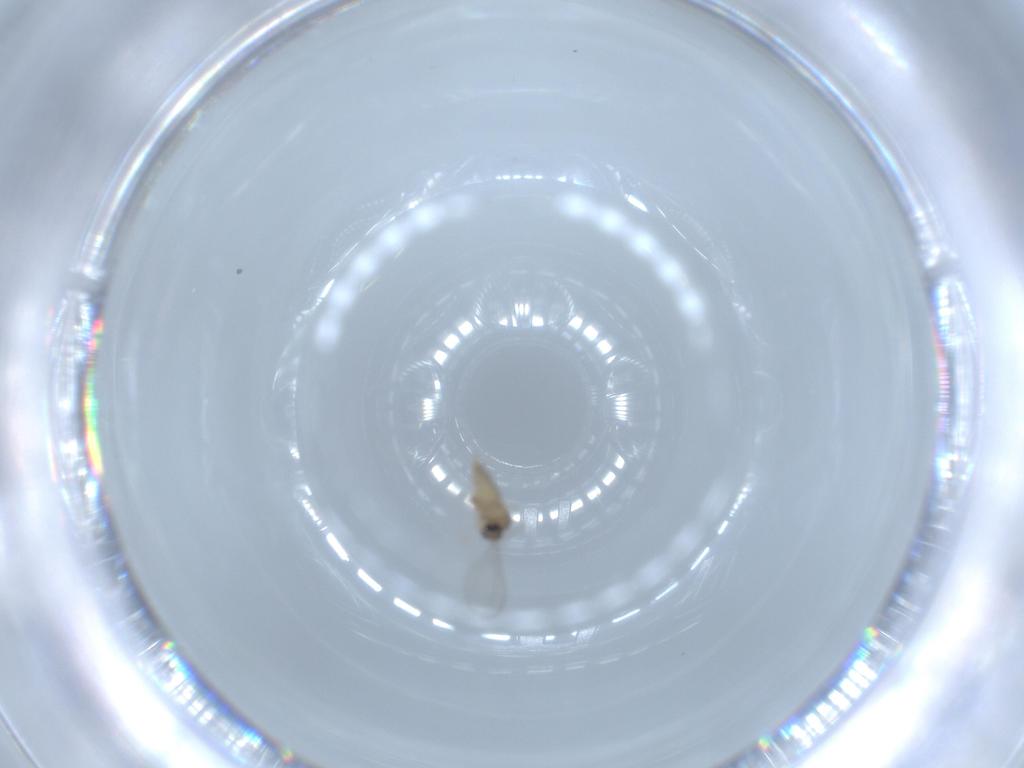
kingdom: Animalia
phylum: Arthropoda
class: Insecta
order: Diptera
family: Cecidomyiidae
